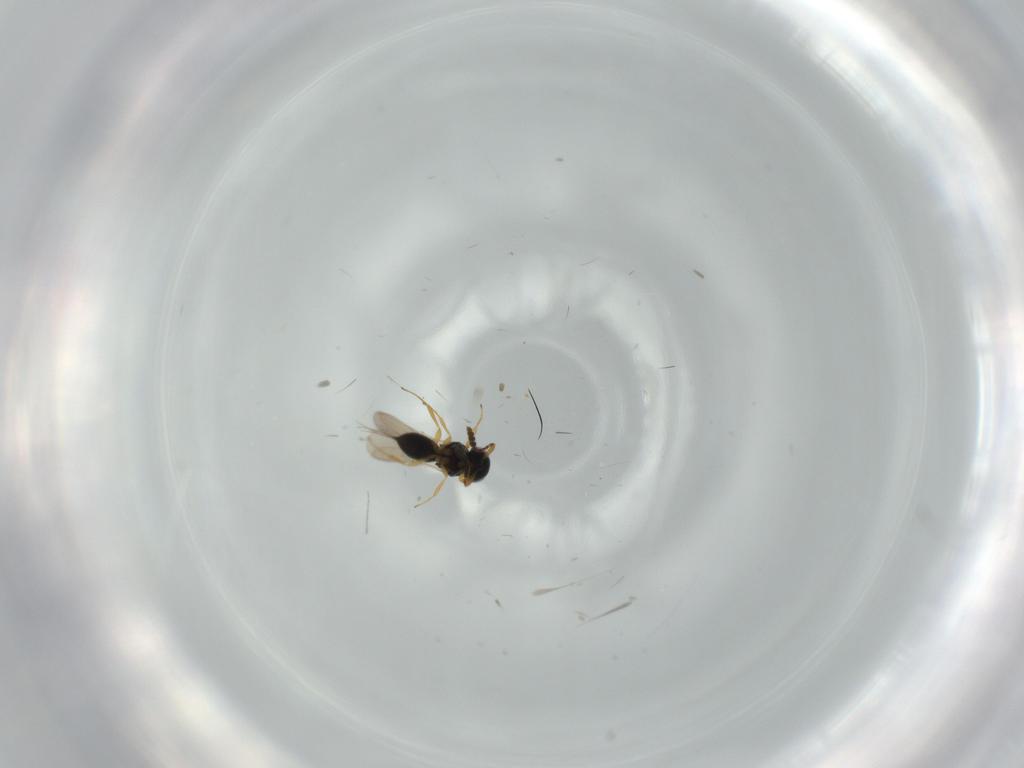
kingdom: Animalia
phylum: Arthropoda
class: Insecta
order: Hymenoptera
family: Scelionidae
